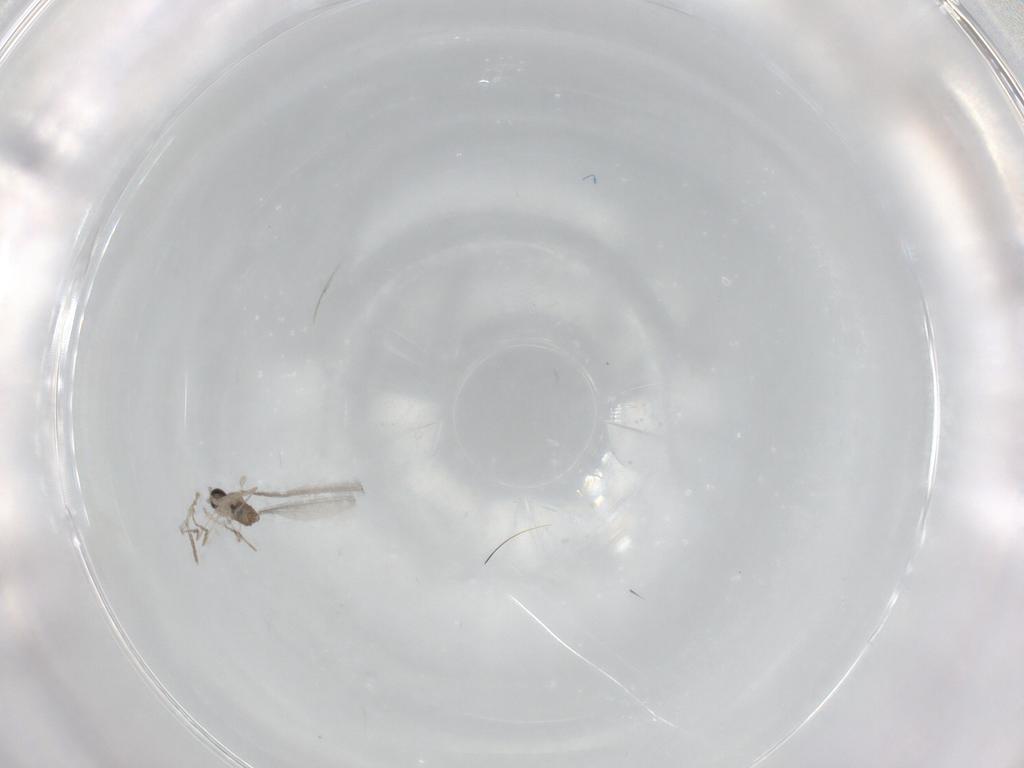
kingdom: Animalia
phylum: Arthropoda
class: Insecta
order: Diptera
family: Cecidomyiidae
